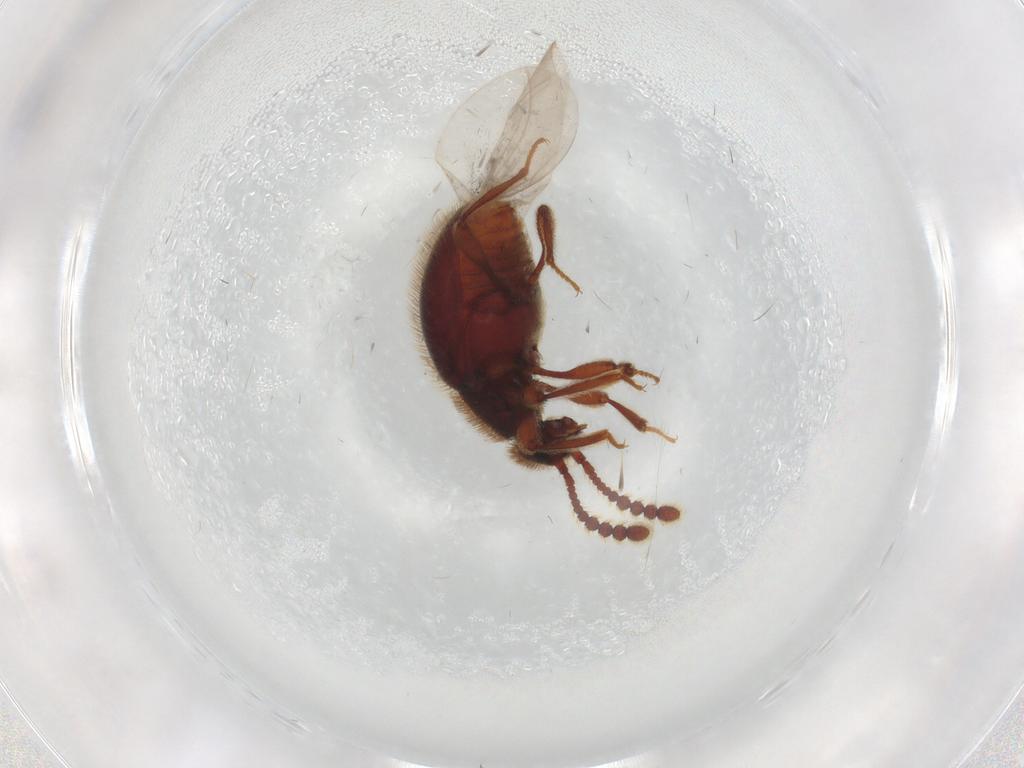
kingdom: Animalia
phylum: Arthropoda
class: Insecta
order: Coleoptera
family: Staphylinidae
